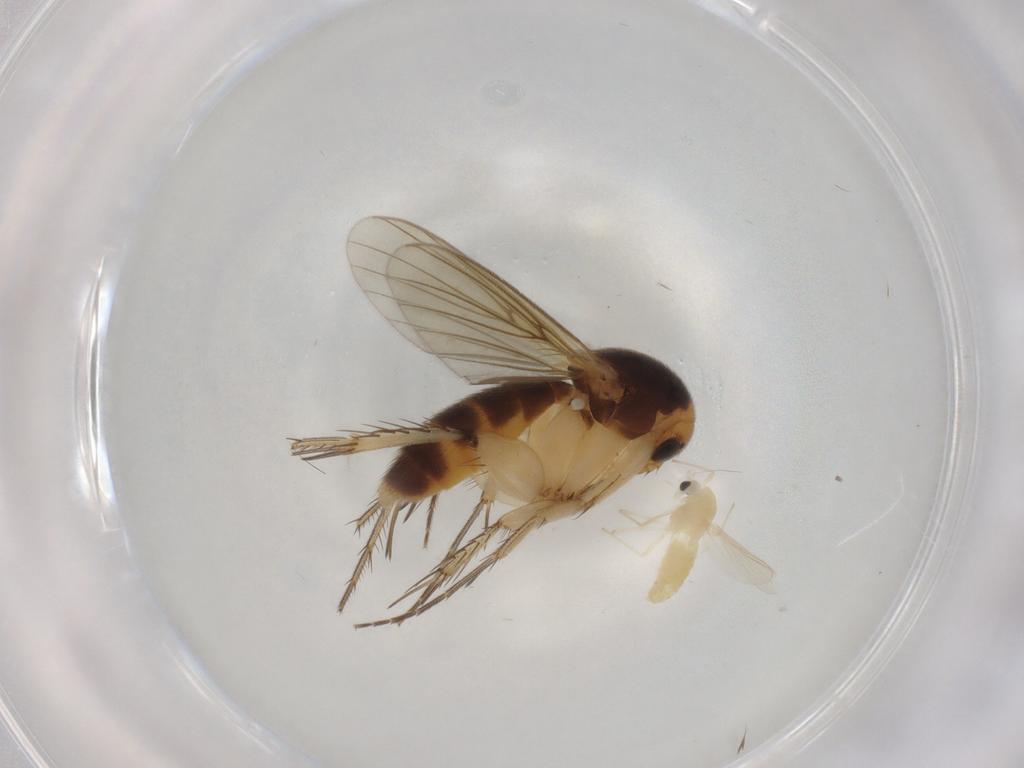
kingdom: Animalia
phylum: Arthropoda
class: Insecta
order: Diptera
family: Mycetophilidae
